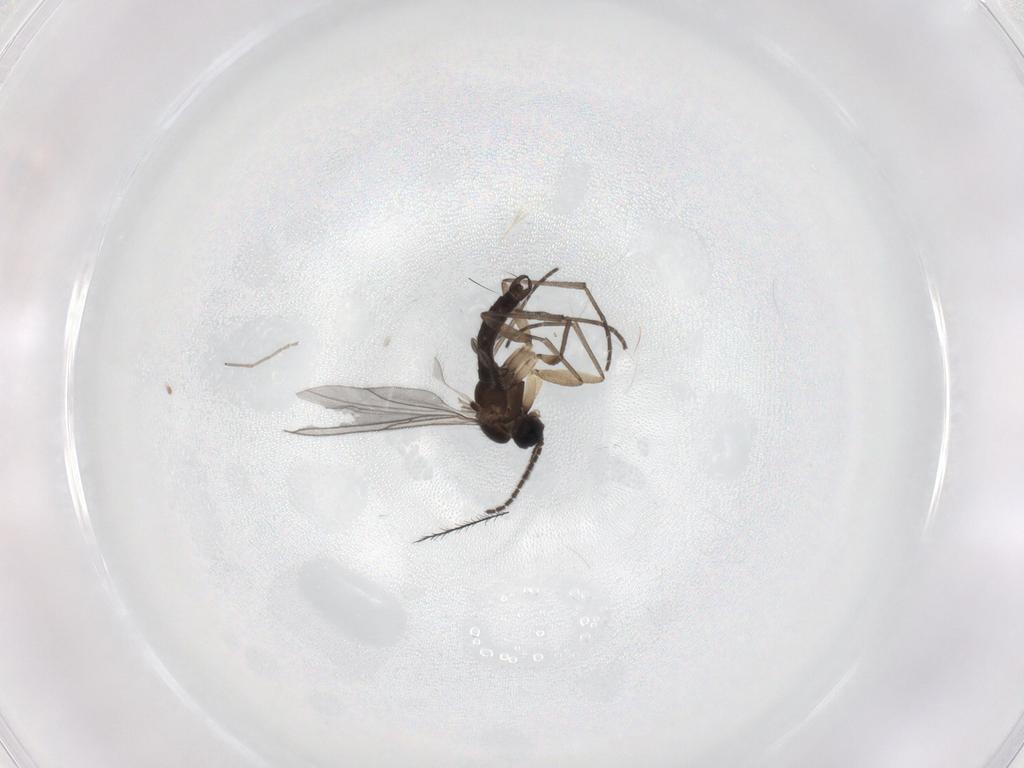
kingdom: Animalia
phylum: Arthropoda
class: Insecta
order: Diptera
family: Sciaridae
